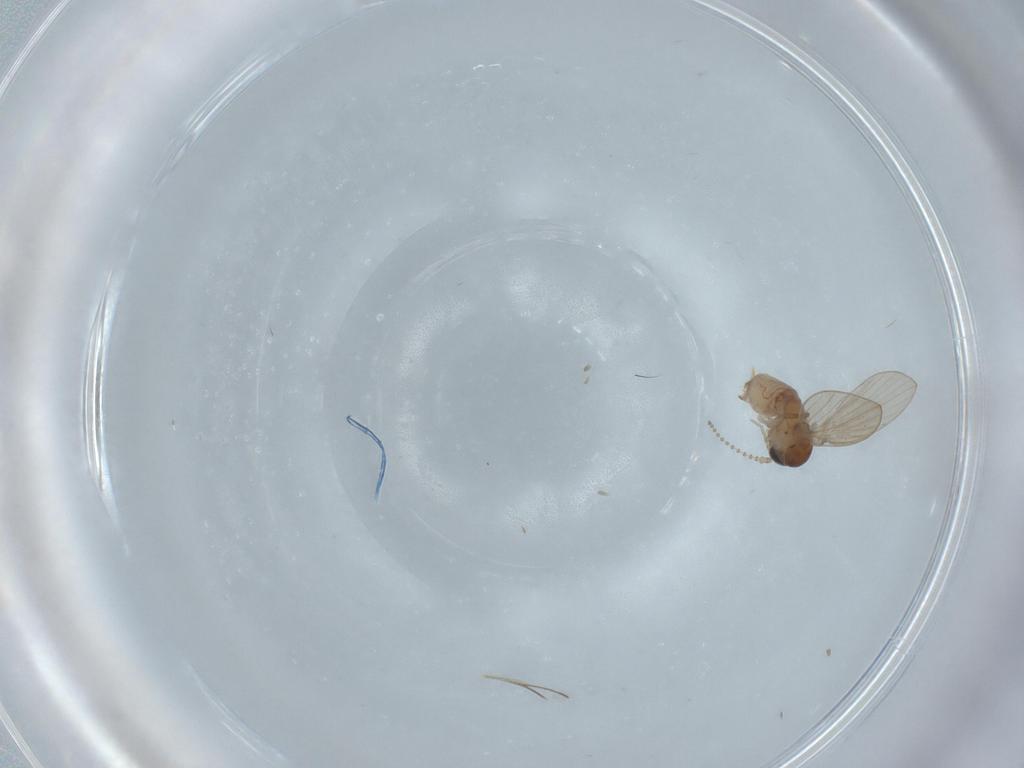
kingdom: Animalia
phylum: Arthropoda
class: Insecta
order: Diptera
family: Psychodidae
